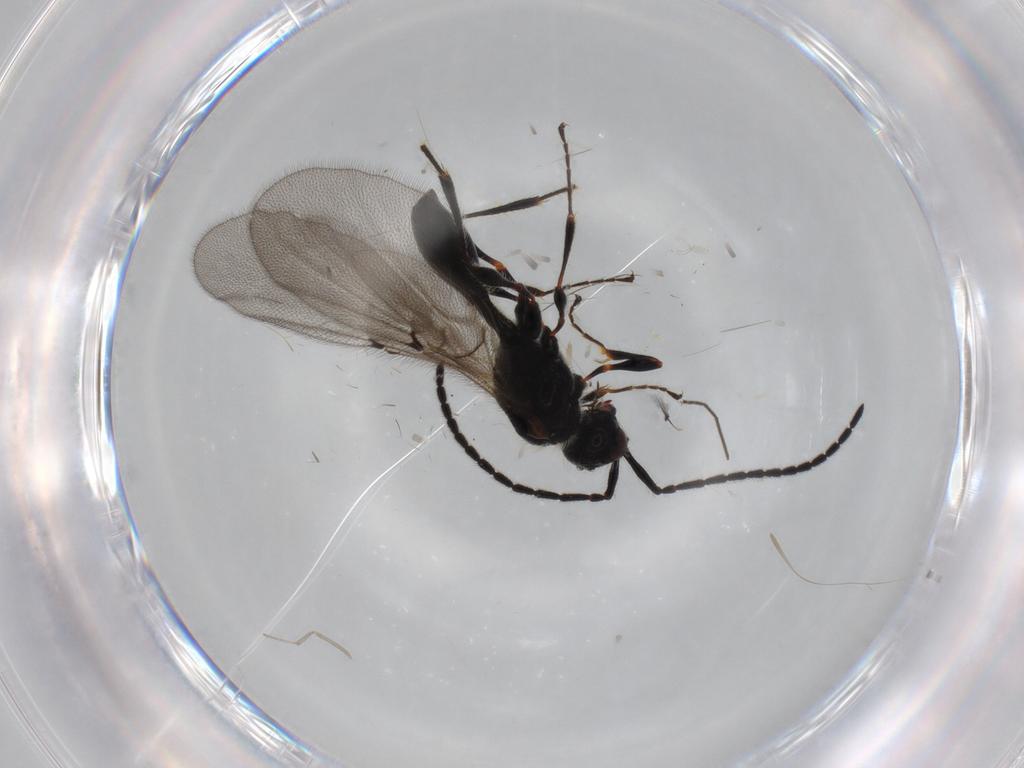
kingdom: Animalia
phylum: Arthropoda
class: Insecta
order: Hymenoptera
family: Diapriidae
